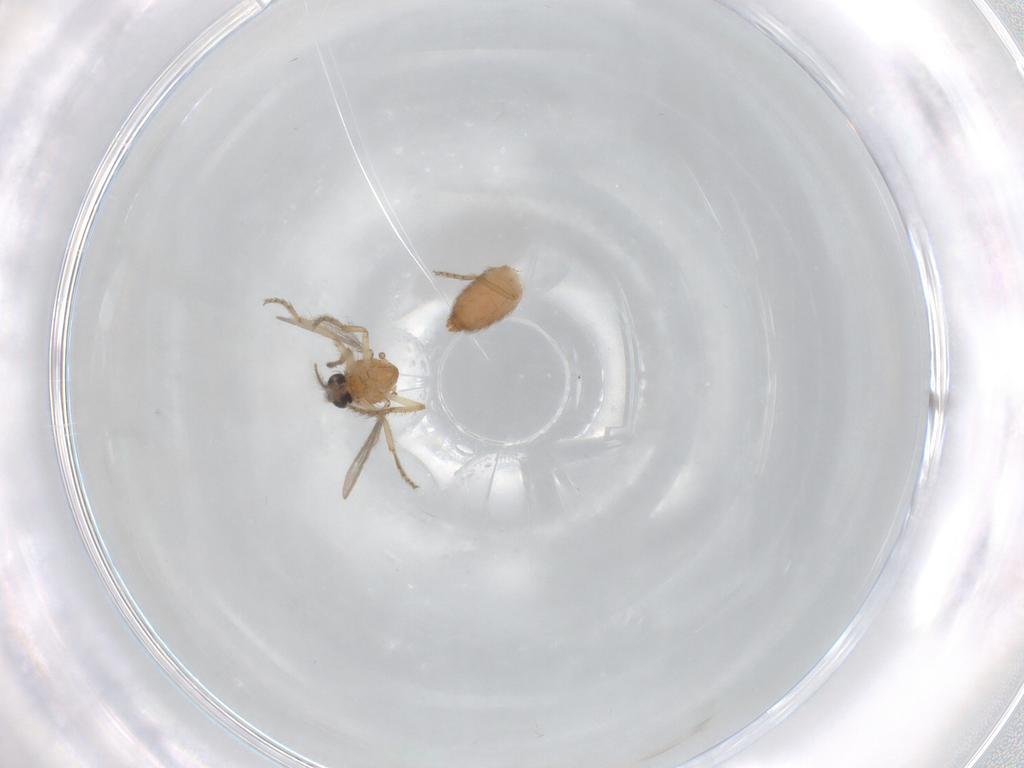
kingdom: Animalia
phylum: Arthropoda
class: Insecta
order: Diptera
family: Ceratopogonidae
